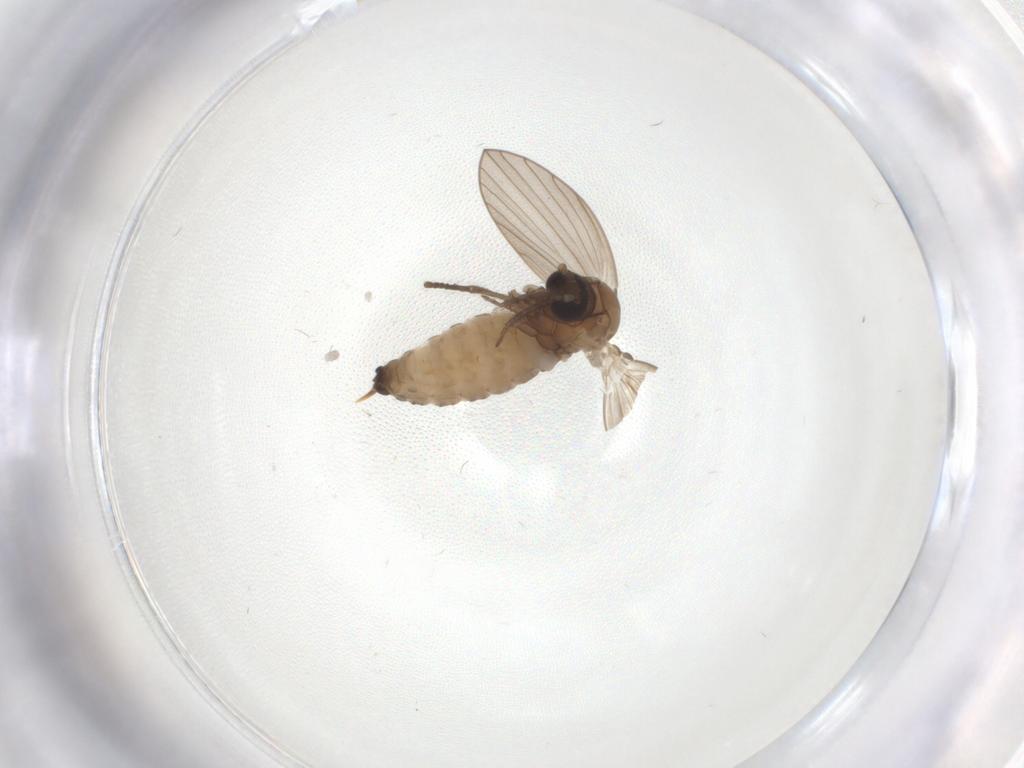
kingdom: Animalia
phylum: Arthropoda
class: Insecta
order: Diptera
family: Psychodidae
